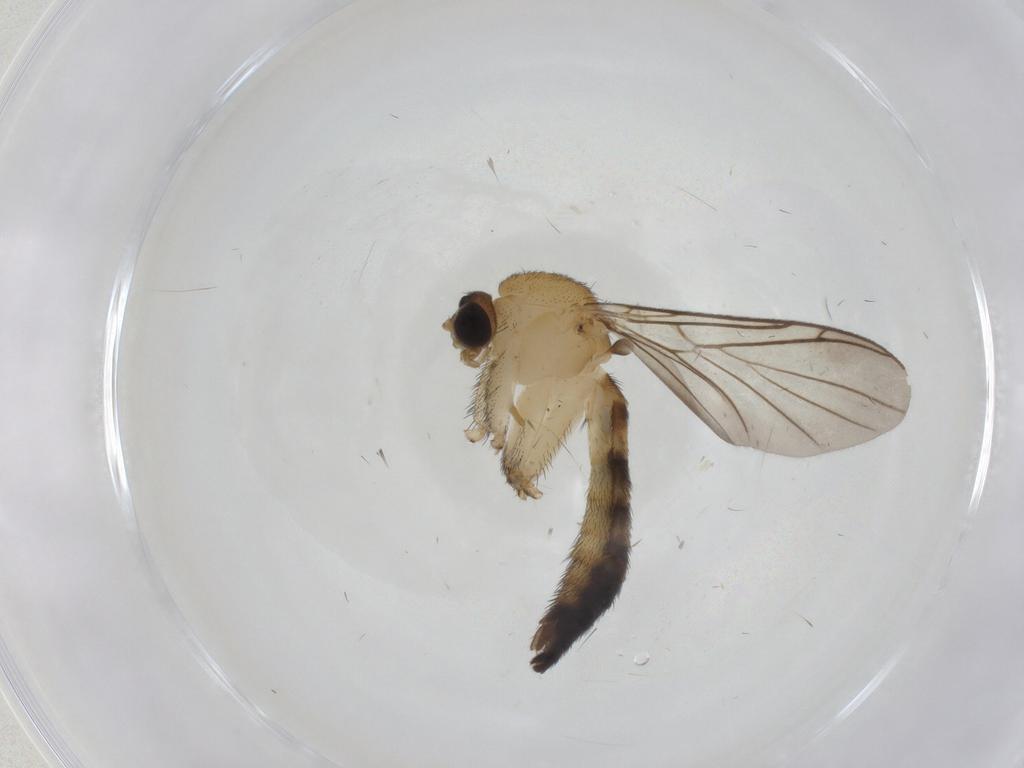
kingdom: Animalia
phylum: Arthropoda
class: Insecta
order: Diptera
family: Keroplatidae
